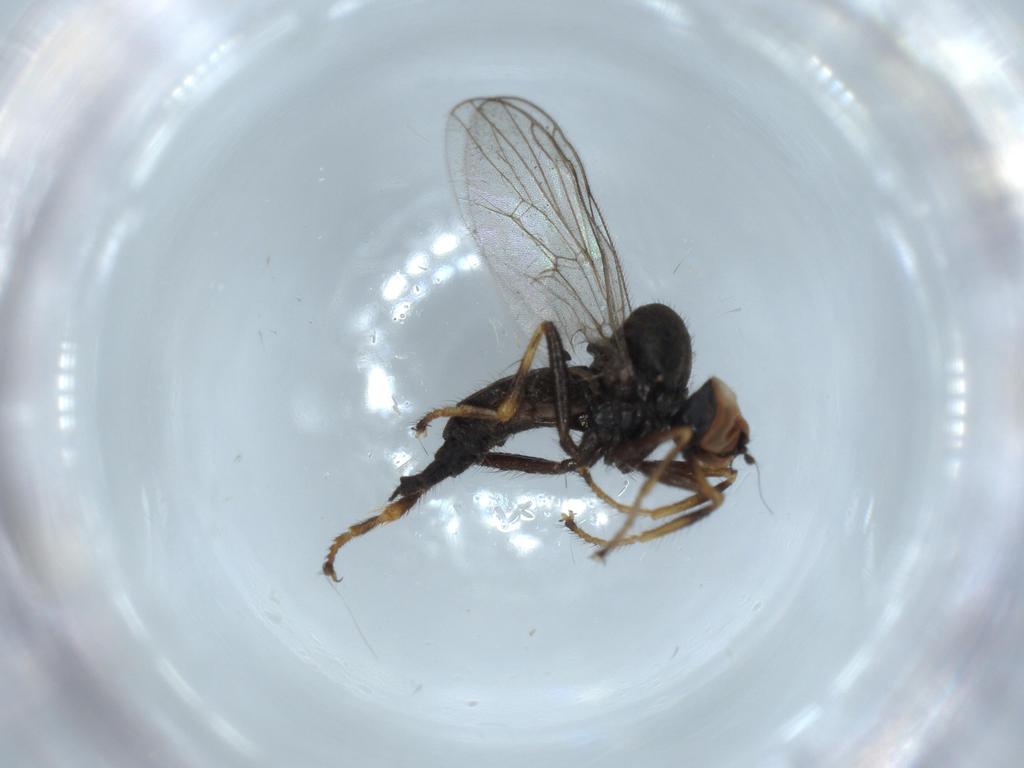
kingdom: Animalia
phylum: Arthropoda
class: Insecta
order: Diptera
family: Hybotidae
